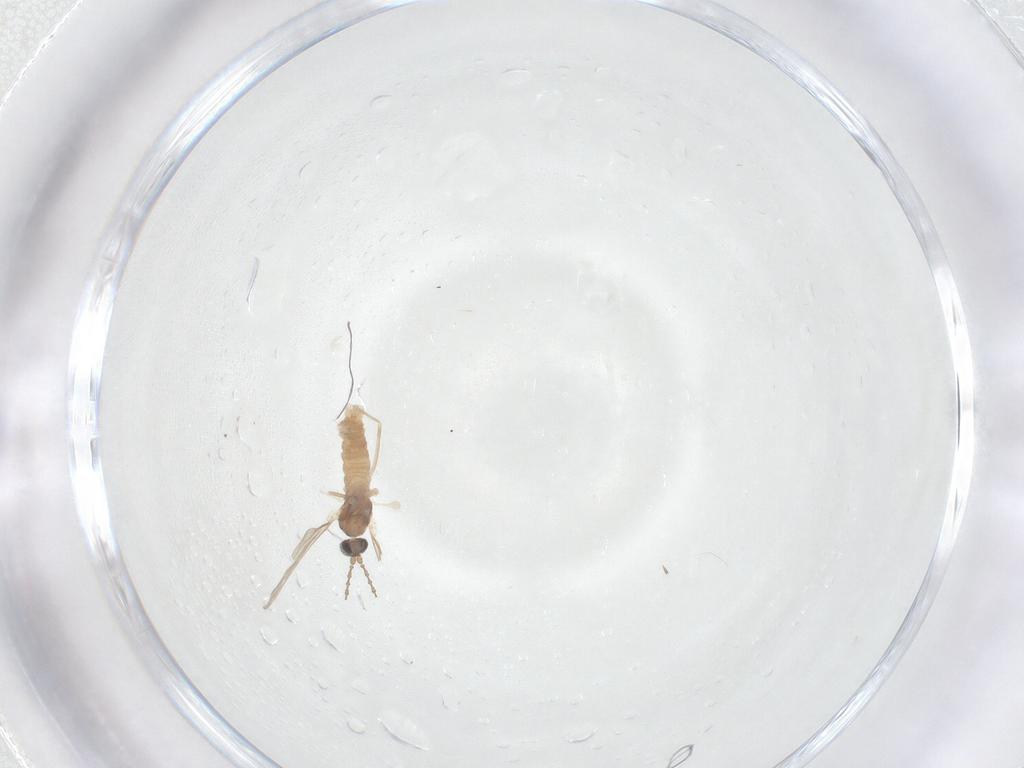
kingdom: Animalia
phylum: Arthropoda
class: Insecta
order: Diptera
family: Cecidomyiidae
